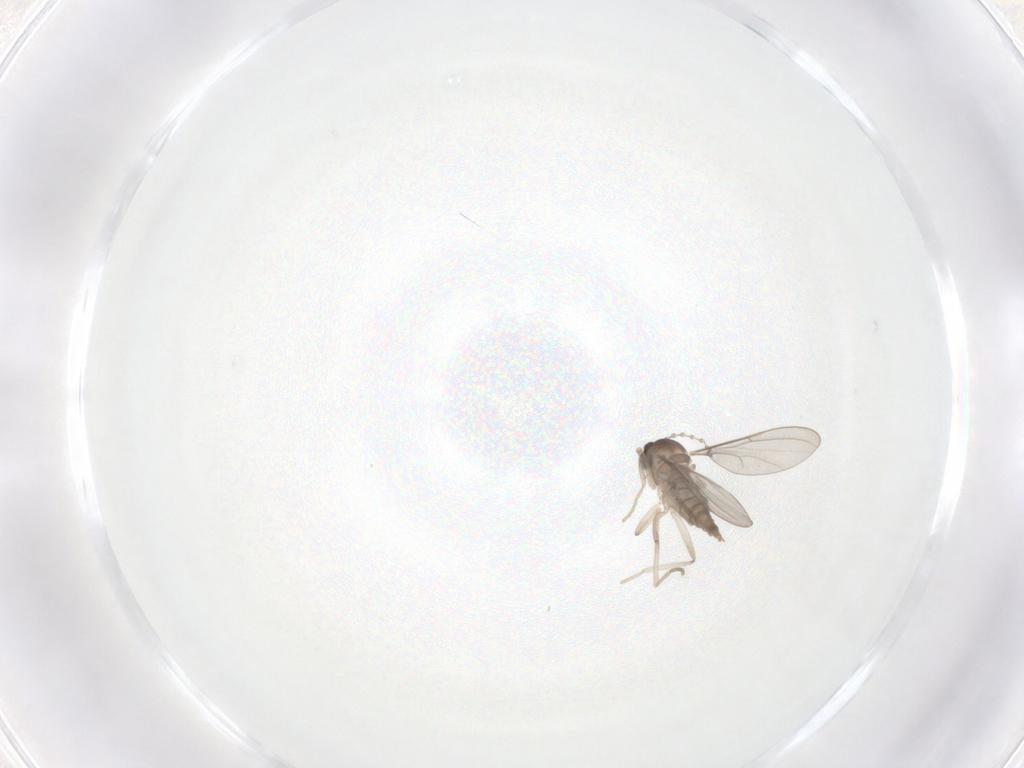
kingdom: Animalia
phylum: Arthropoda
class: Insecta
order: Diptera
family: Cecidomyiidae
